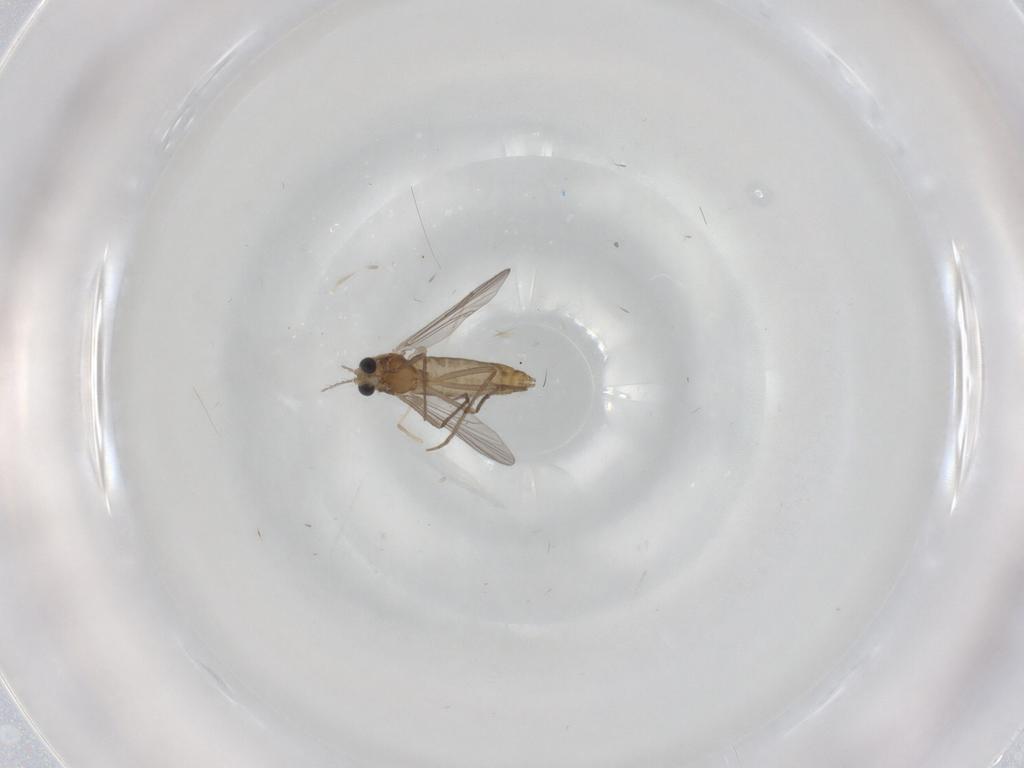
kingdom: Animalia
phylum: Arthropoda
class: Insecta
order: Diptera
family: Chironomidae
